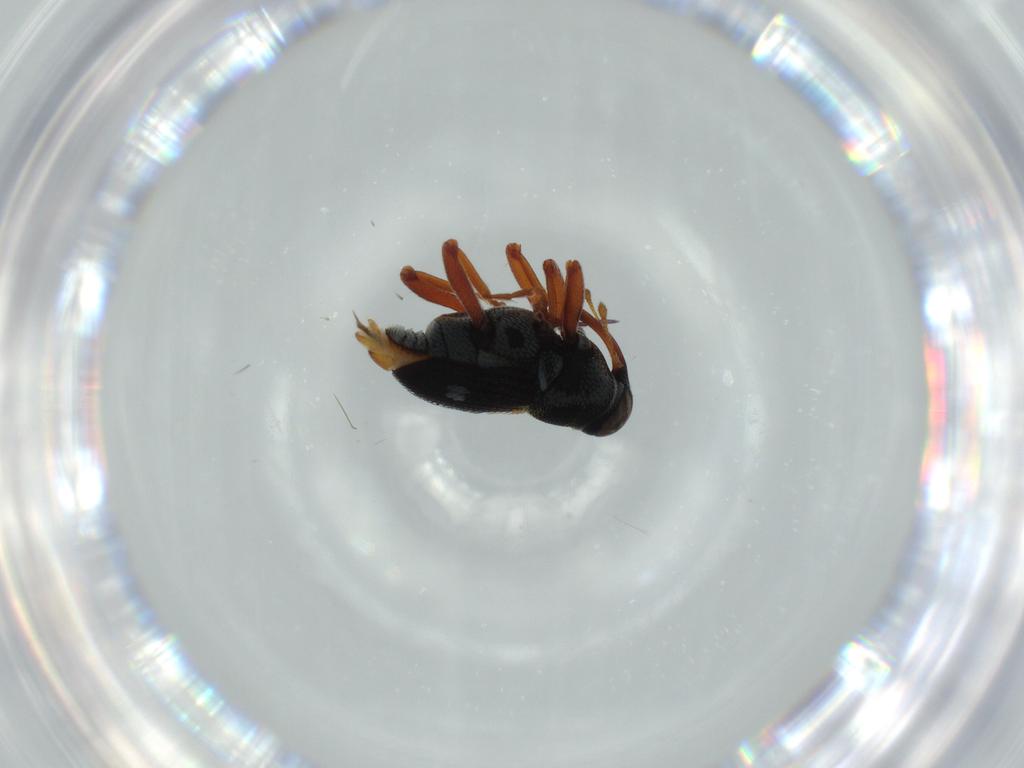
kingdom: Animalia
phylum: Arthropoda
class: Insecta
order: Coleoptera
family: Curculionidae
